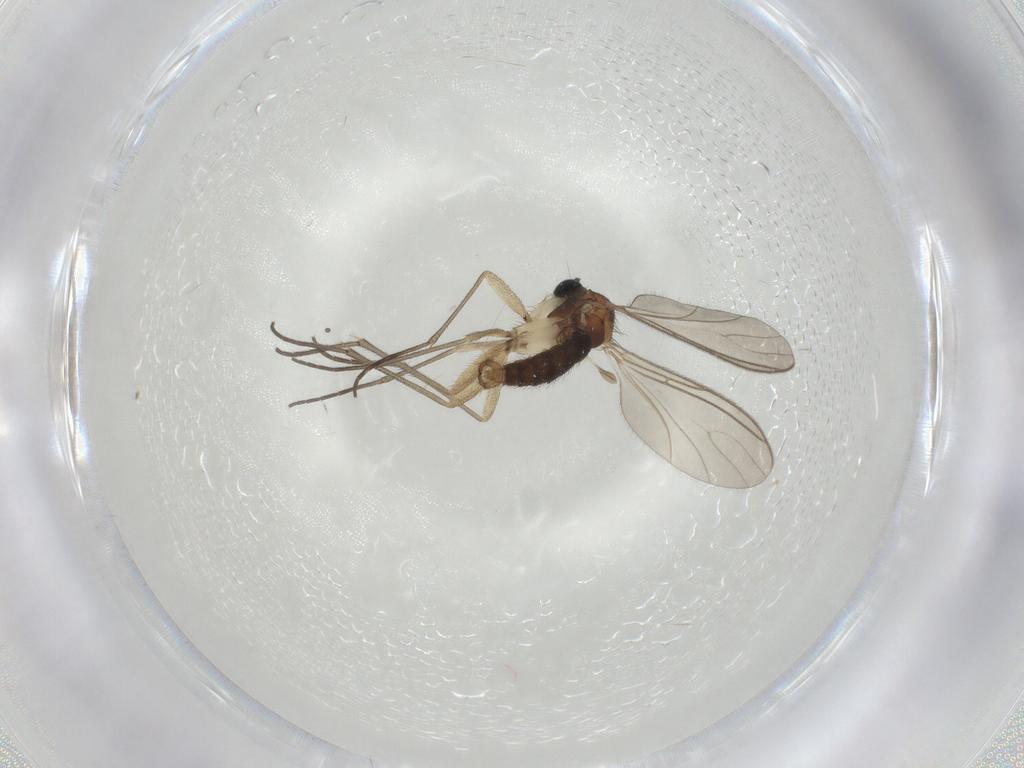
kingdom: Animalia
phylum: Arthropoda
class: Insecta
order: Diptera
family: Sciaridae
